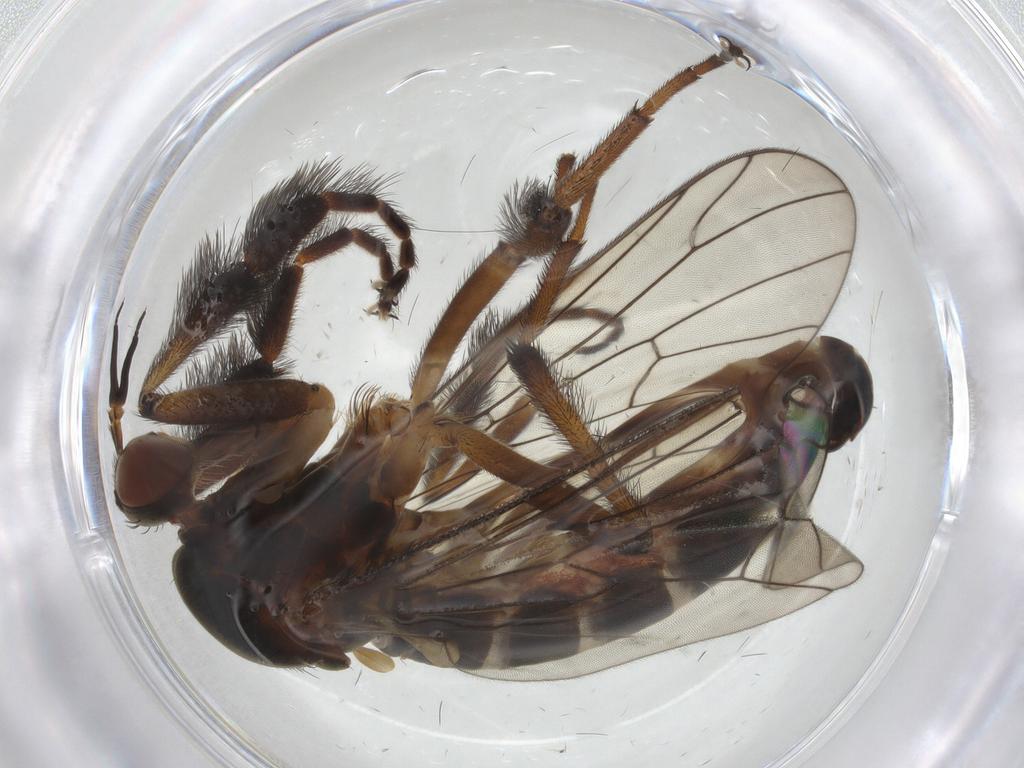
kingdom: Animalia
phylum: Arthropoda
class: Insecta
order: Diptera
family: Empididae
